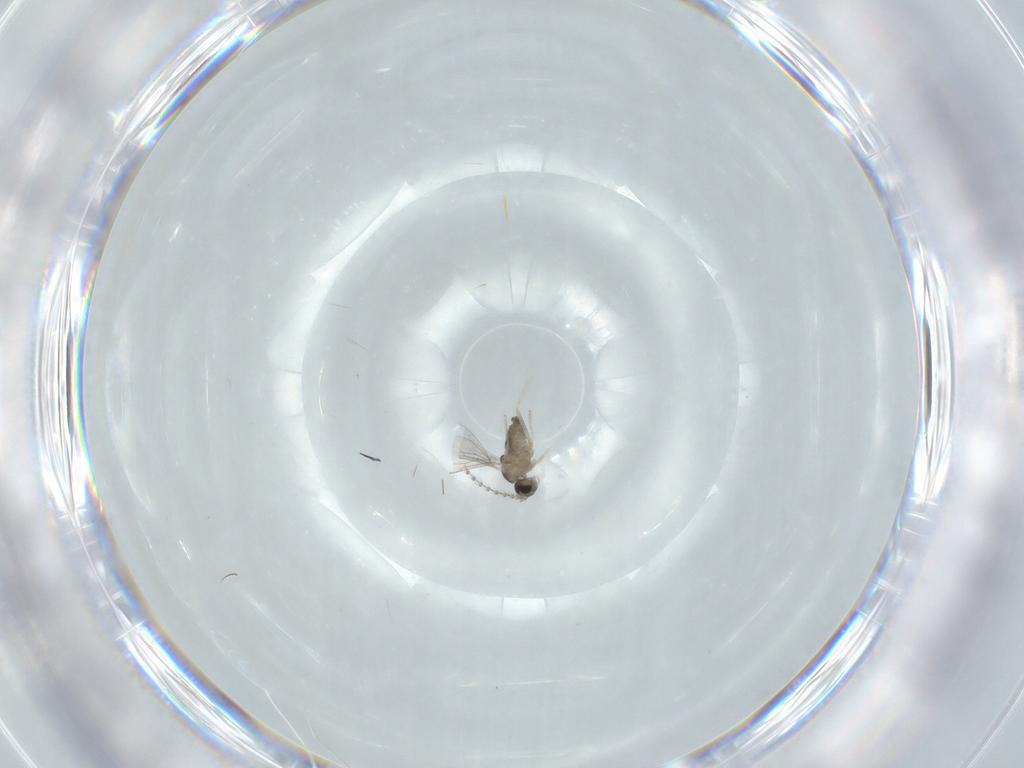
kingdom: Animalia
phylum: Arthropoda
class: Insecta
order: Diptera
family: Cecidomyiidae
